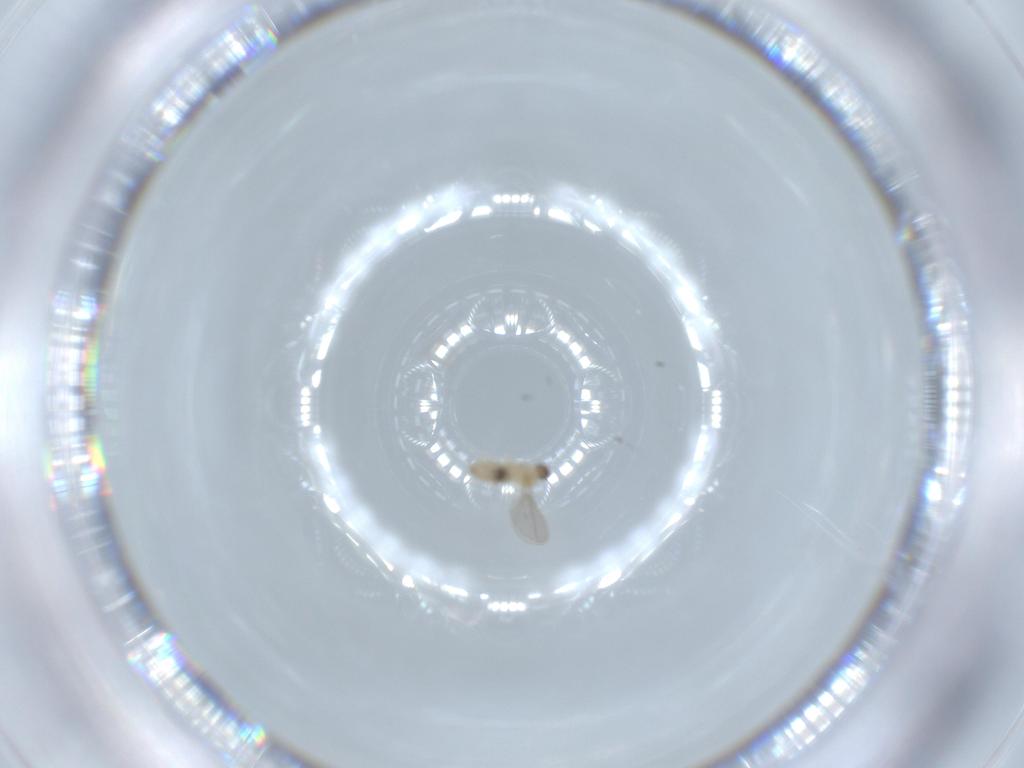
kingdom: Animalia
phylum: Arthropoda
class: Insecta
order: Diptera
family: Cecidomyiidae
